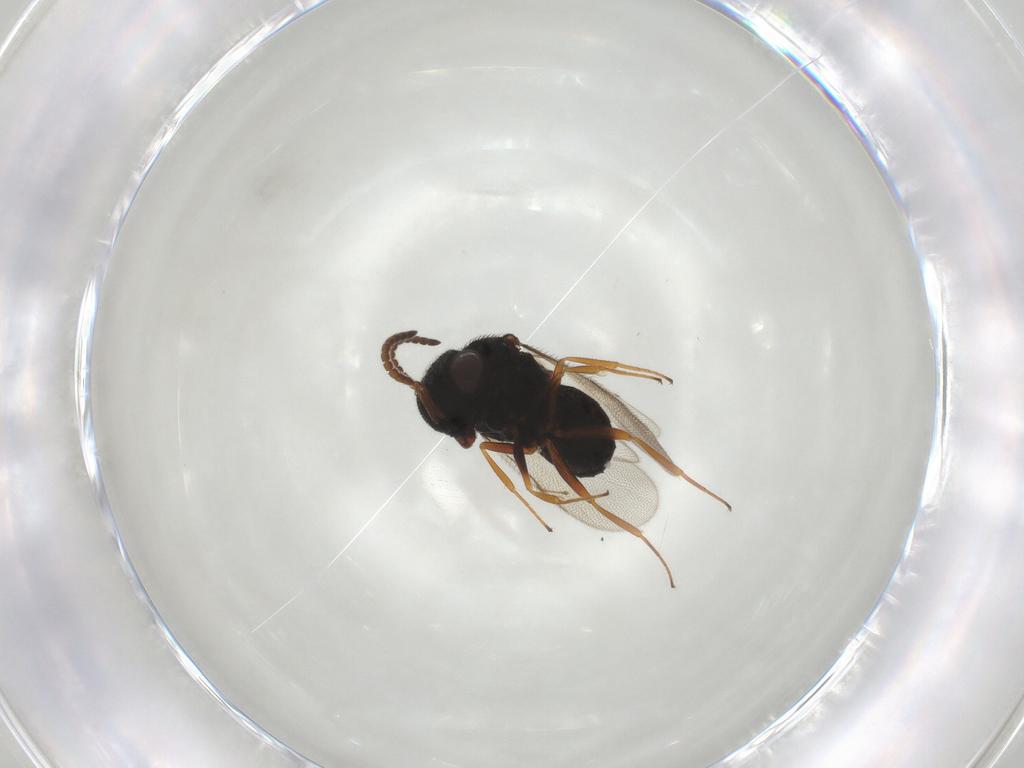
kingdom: Animalia
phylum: Arthropoda
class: Insecta
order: Hymenoptera
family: Scelionidae
